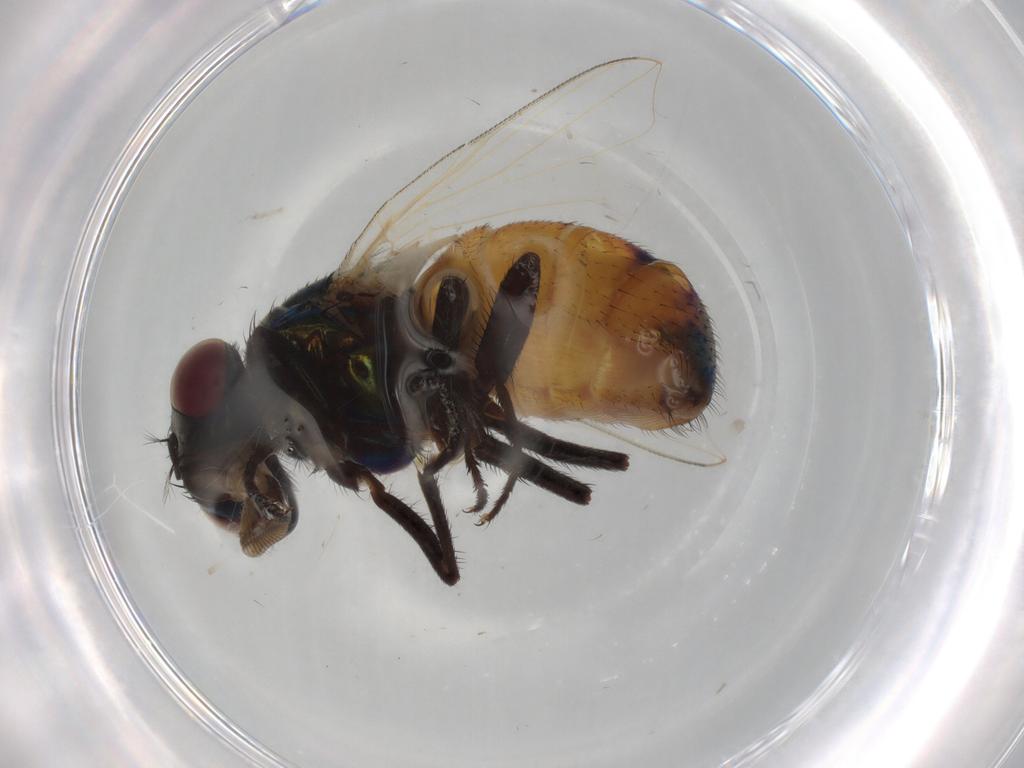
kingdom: Animalia
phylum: Arthropoda
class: Insecta
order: Diptera
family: Muscidae
